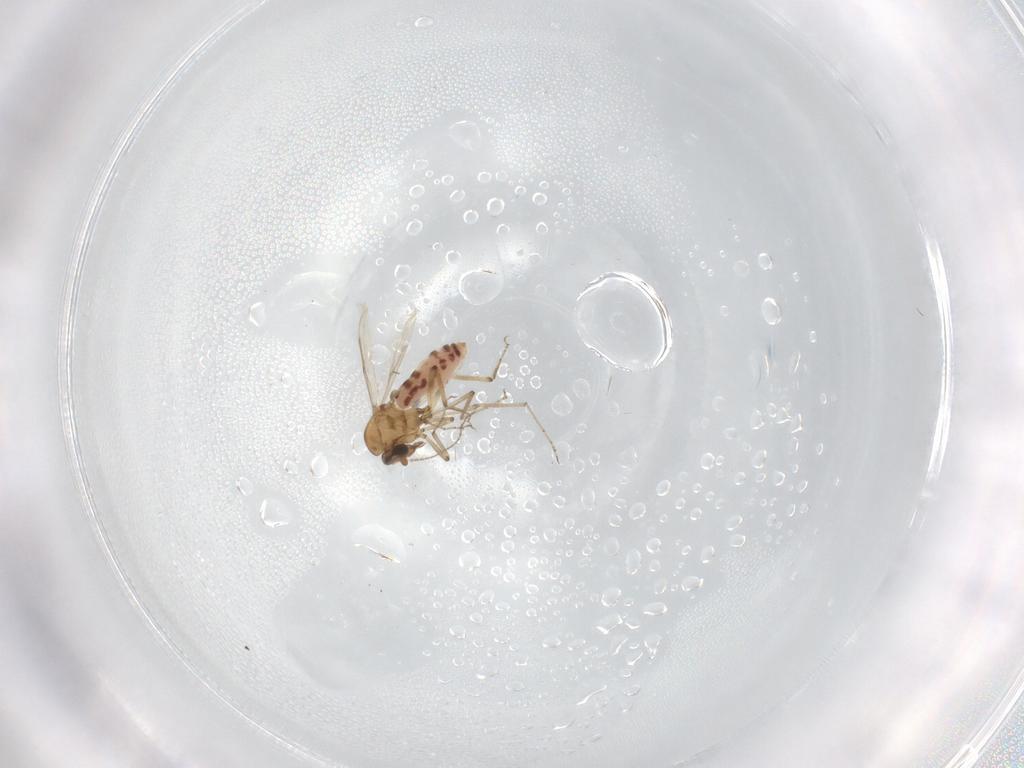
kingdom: Animalia
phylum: Arthropoda
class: Insecta
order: Diptera
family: Ceratopogonidae
